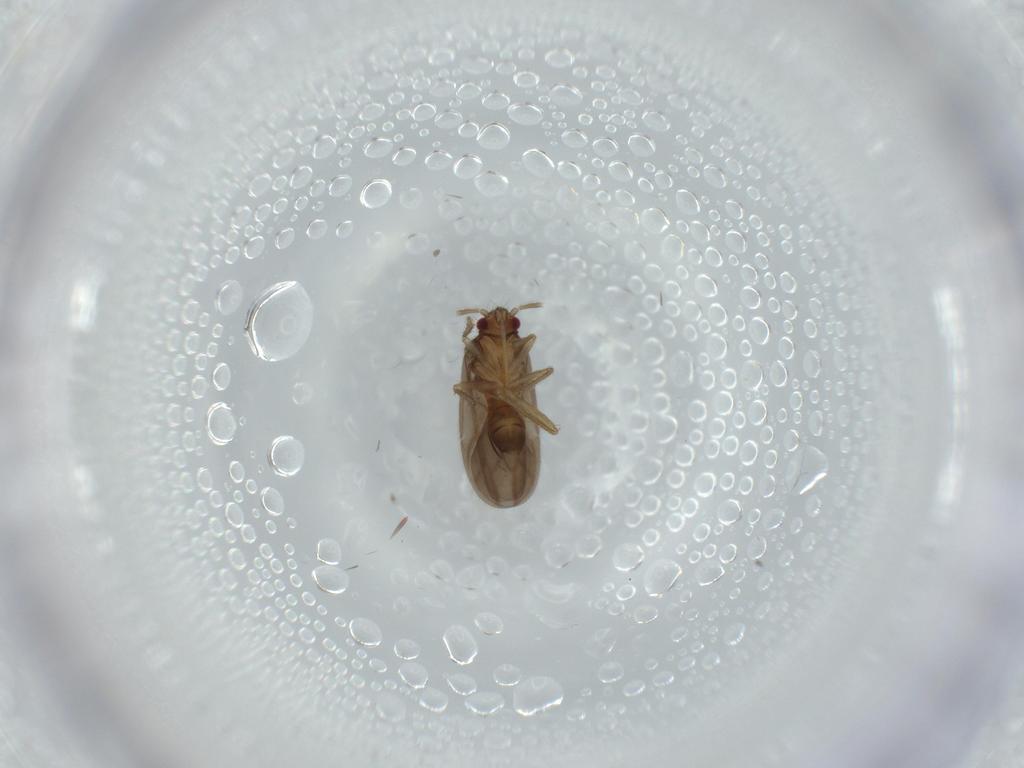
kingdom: Animalia
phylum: Arthropoda
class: Insecta
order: Hemiptera
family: Ceratocombidae
